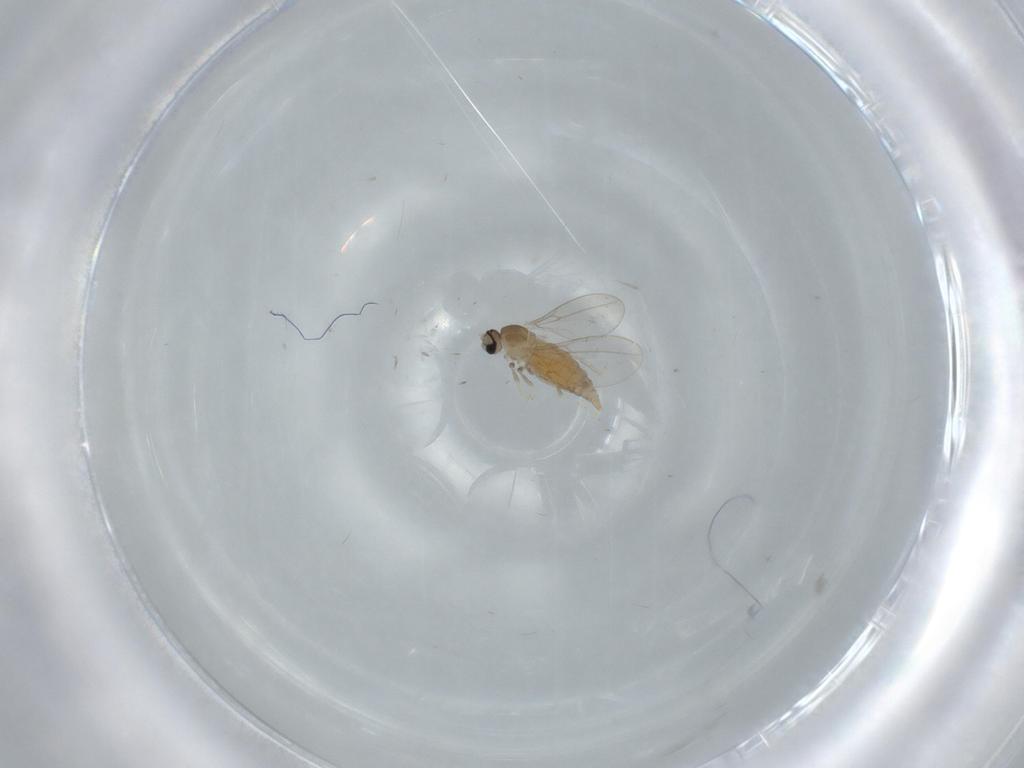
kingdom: Animalia
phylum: Arthropoda
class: Insecta
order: Diptera
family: Cecidomyiidae
